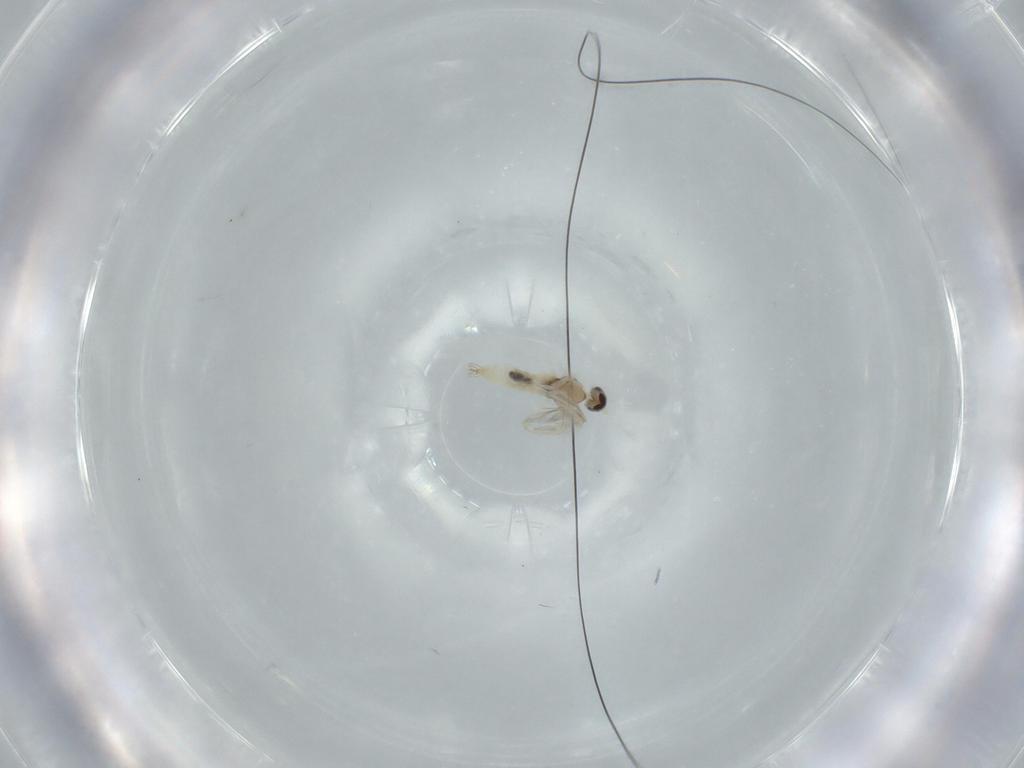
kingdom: Animalia
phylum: Arthropoda
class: Insecta
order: Diptera
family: Cecidomyiidae
